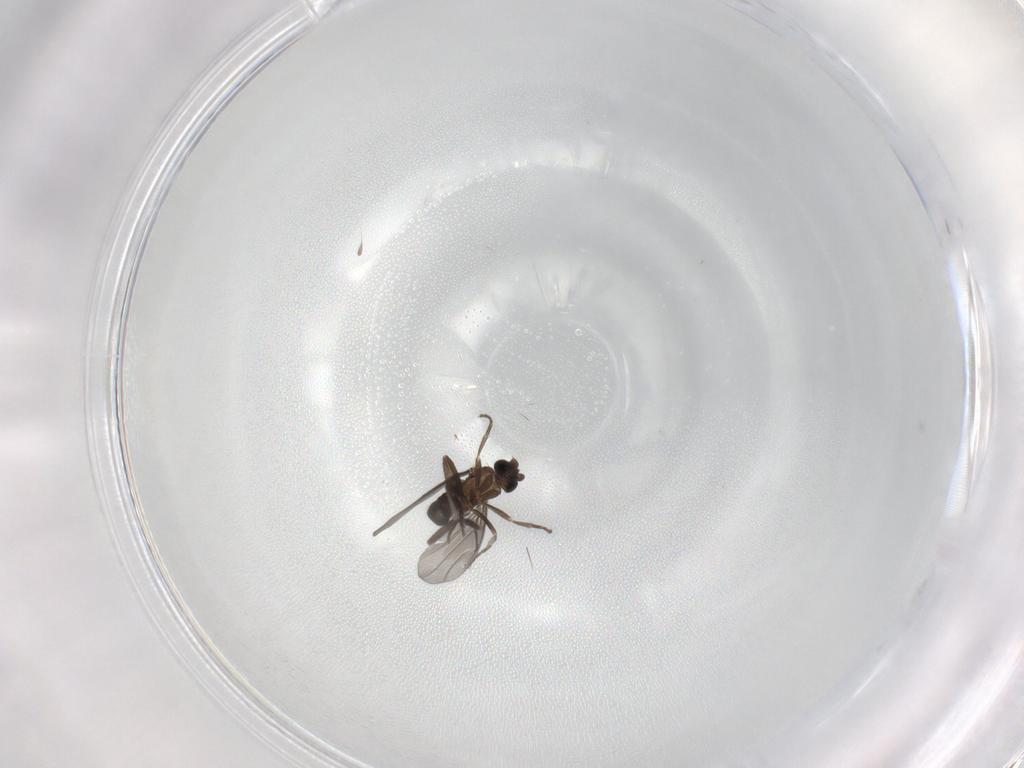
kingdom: Animalia
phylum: Arthropoda
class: Insecta
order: Diptera
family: Phoridae
